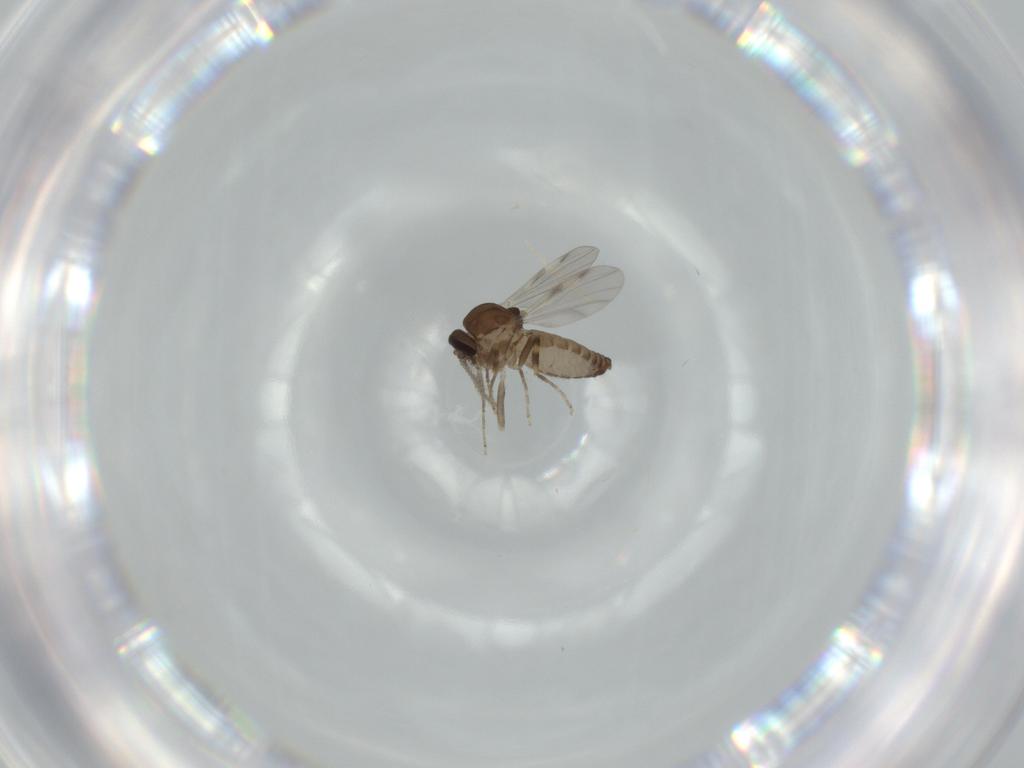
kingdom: Animalia
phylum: Arthropoda
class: Insecta
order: Diptera
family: Ceratopogonidae
